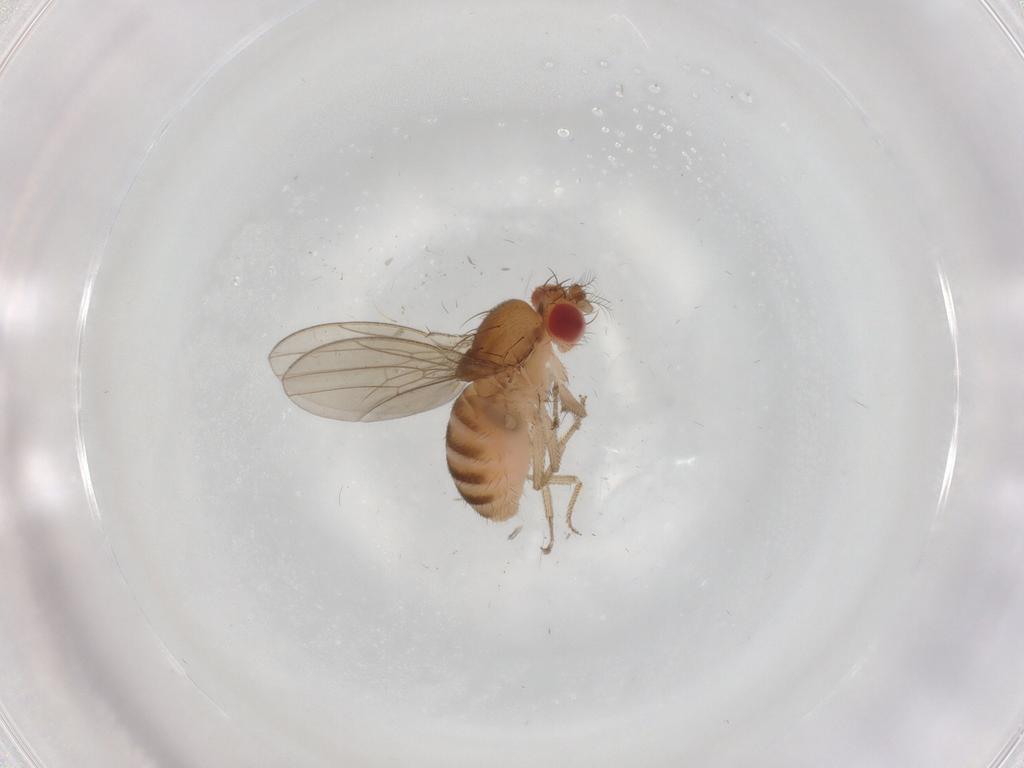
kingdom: Animalia
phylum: Arthropoda
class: Insecta
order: Diptera
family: Drosophilidae
